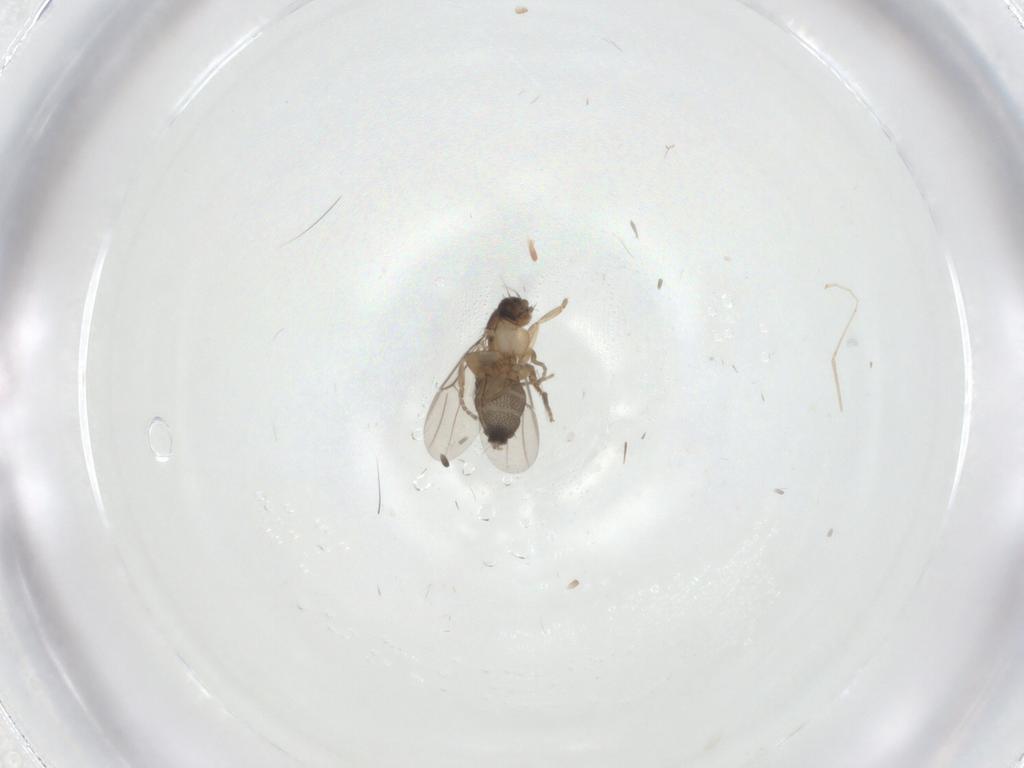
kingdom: Animalia
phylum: Arthropoda
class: Insecta
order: Diptera
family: Phoridae
